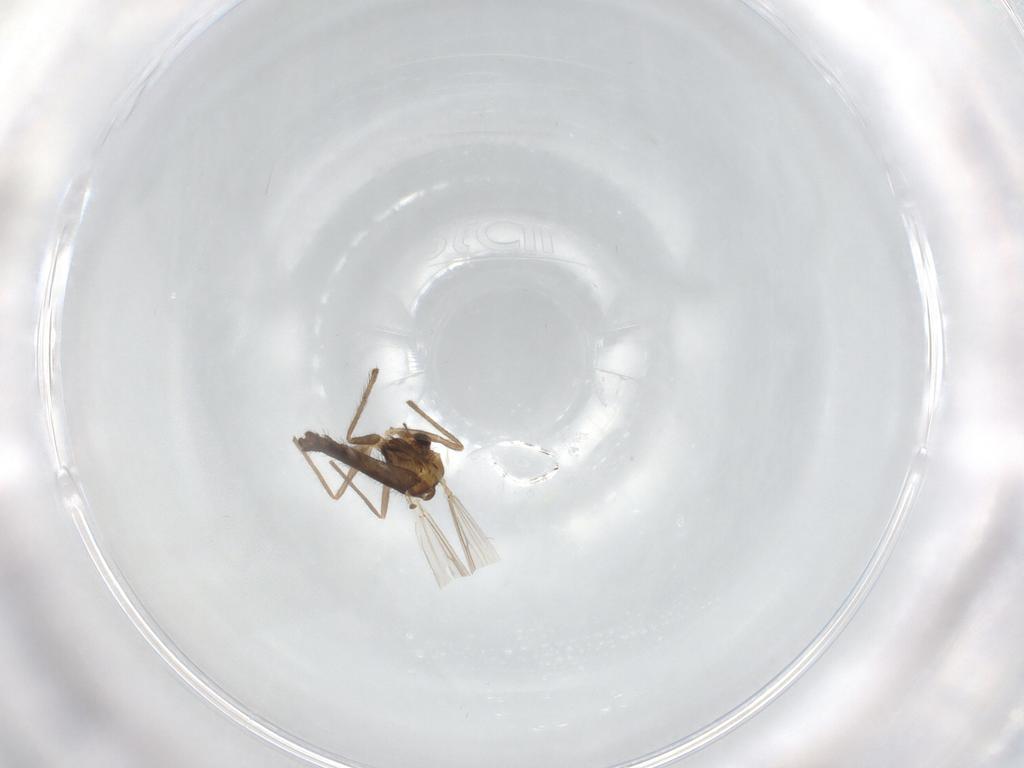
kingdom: Animalia
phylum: Arthropoda
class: Insecta
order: Diptera
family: Chironomidae
